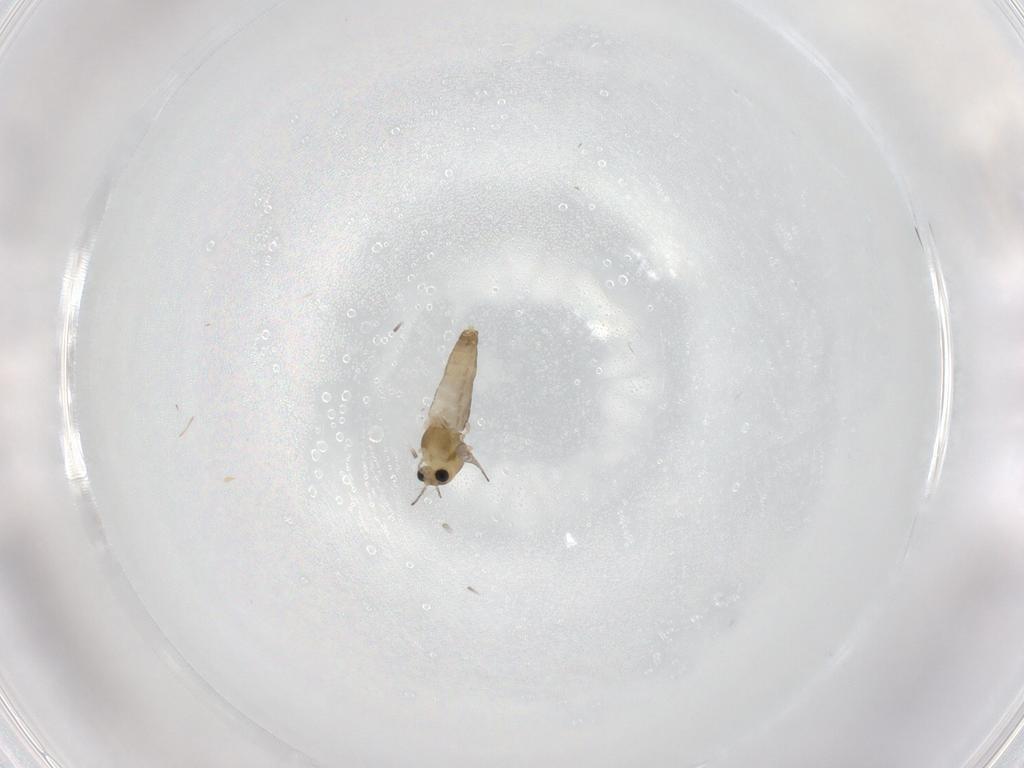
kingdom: Animalia
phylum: Arthropoda
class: Insecta
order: Diptera
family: Chironomidae
